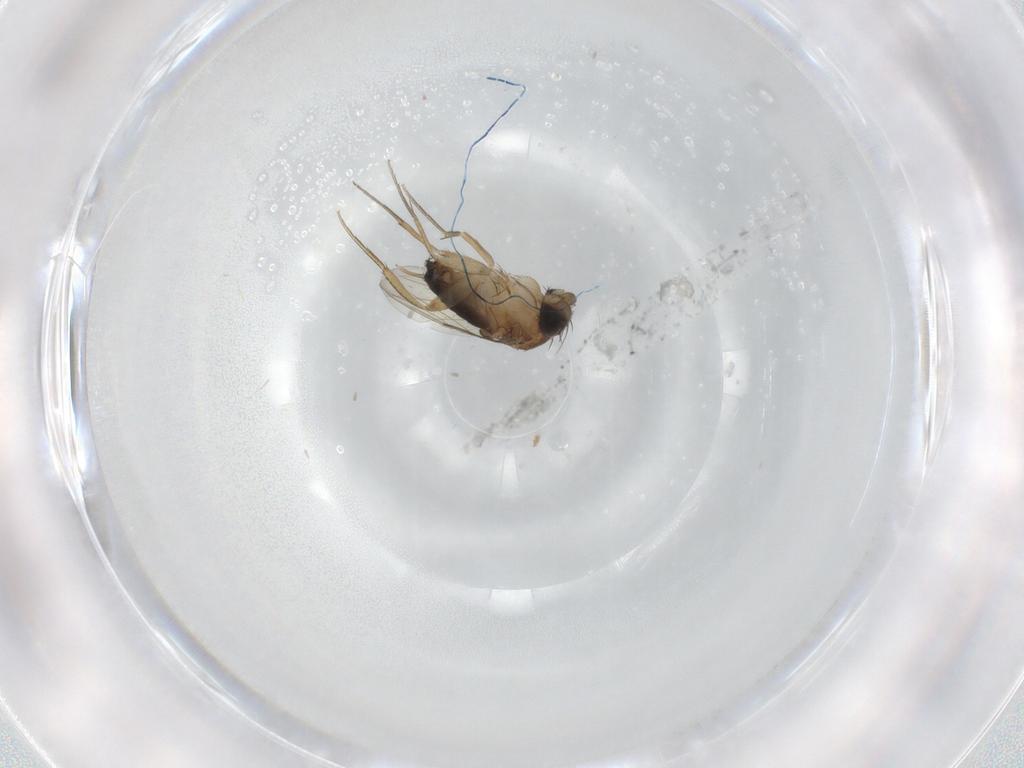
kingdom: Animalia
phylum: Arthropoda
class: Insecta
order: Diptera
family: Phoridae
